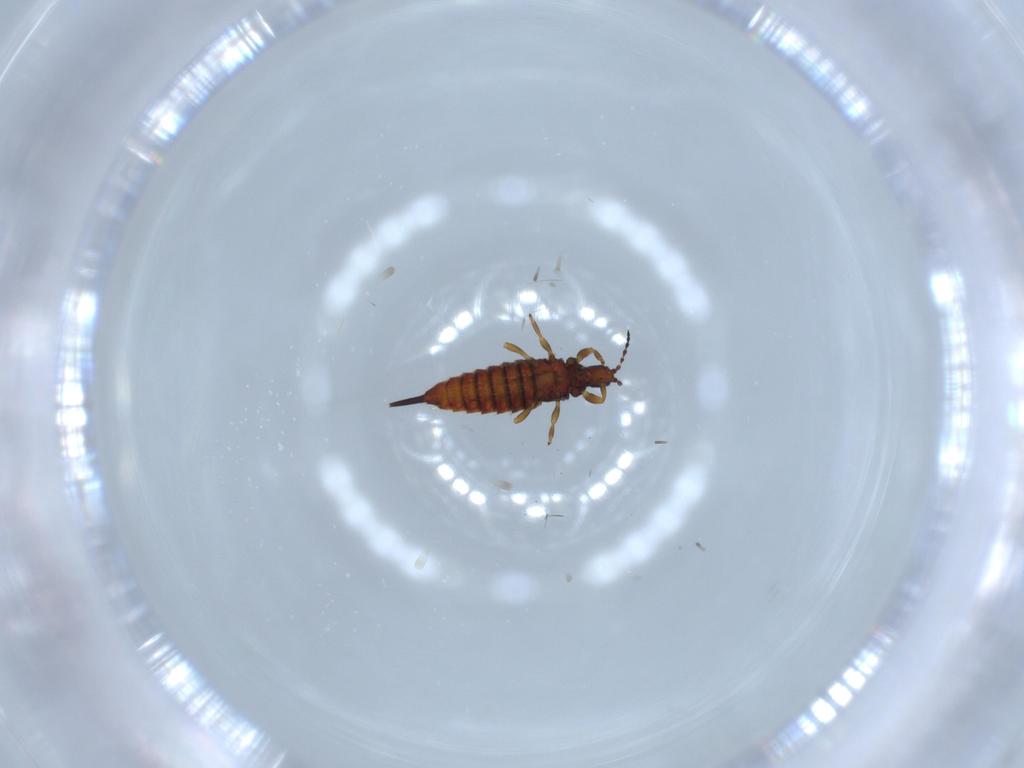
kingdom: Animalia
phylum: Arthropoda
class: Insecta
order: Thysanoptera
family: Phlaeothripidae
